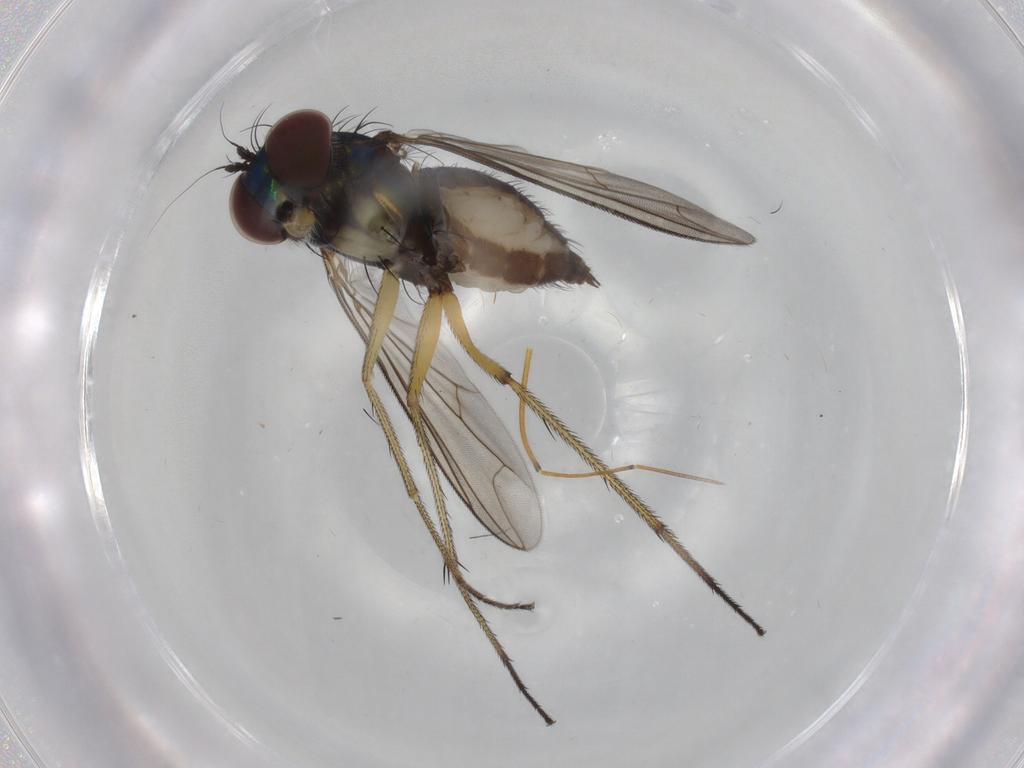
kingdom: Animalia
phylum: Arthropoda
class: Insecta
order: Diptera
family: Dolichopodidae
